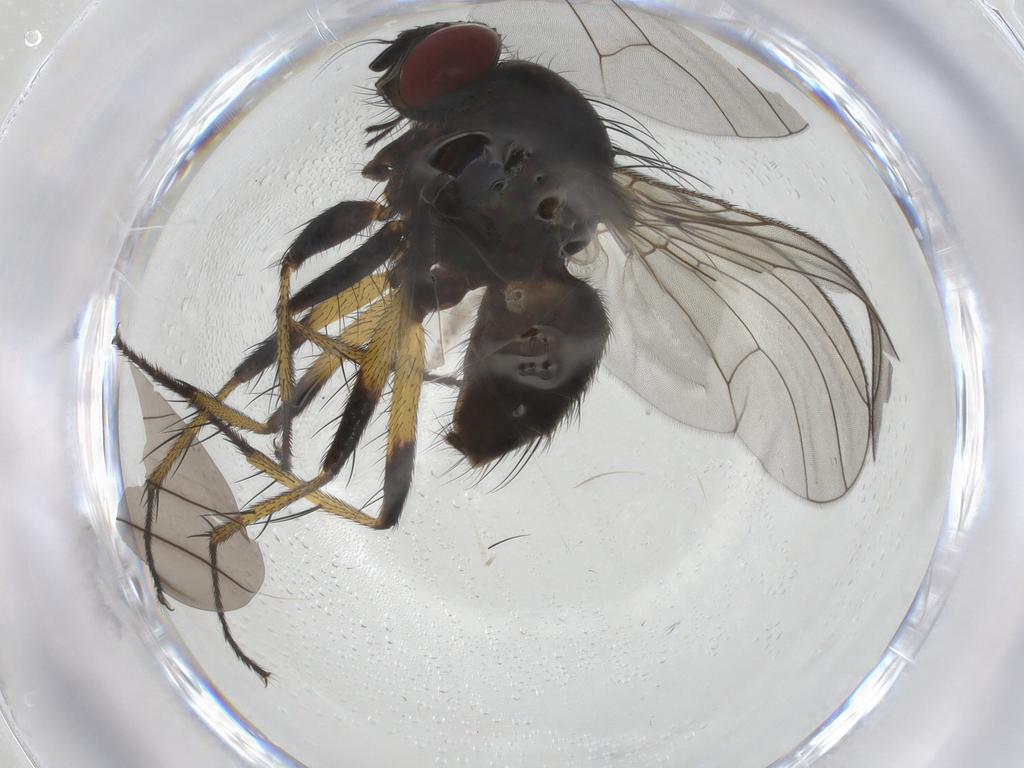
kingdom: Animalia
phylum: Arthropoda
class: Insecta
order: Diptera
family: Muscidae
